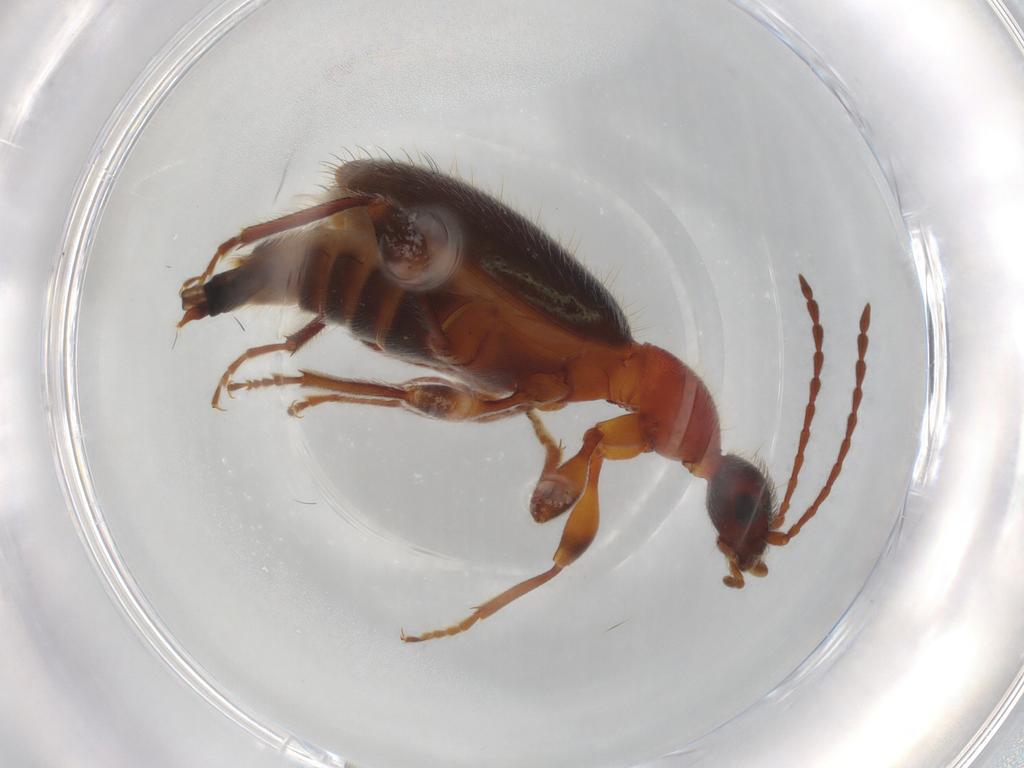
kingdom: Animalia
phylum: Arthropoda
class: Insecta
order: Coleoptera
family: Anthicidae
